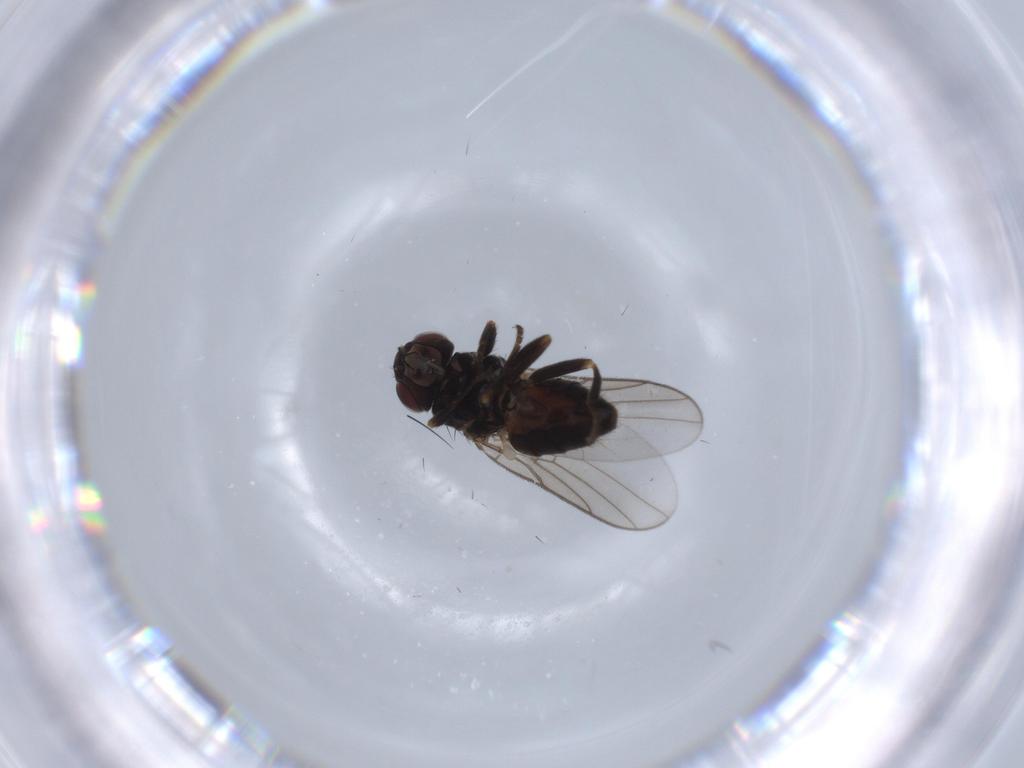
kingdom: Animalia
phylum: Arthropoda
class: Insecta
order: Diptera
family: Chloropidae
